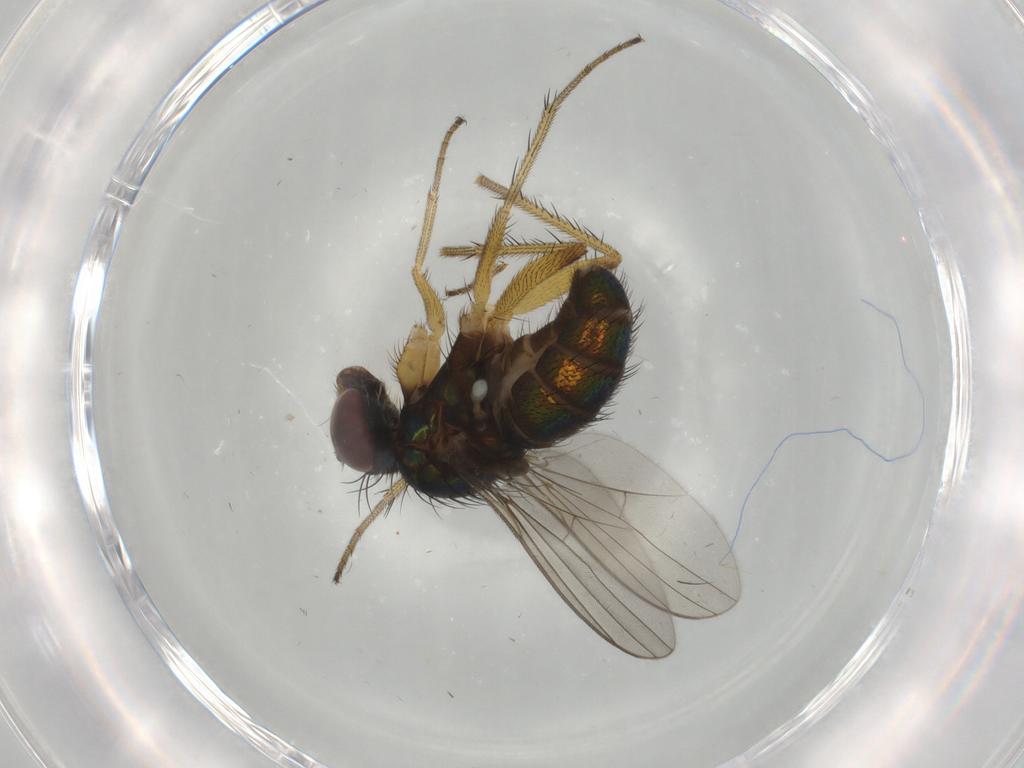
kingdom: Animalia
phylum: Arthropoda
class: Insecta
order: Diptera
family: Dolichopodidae
